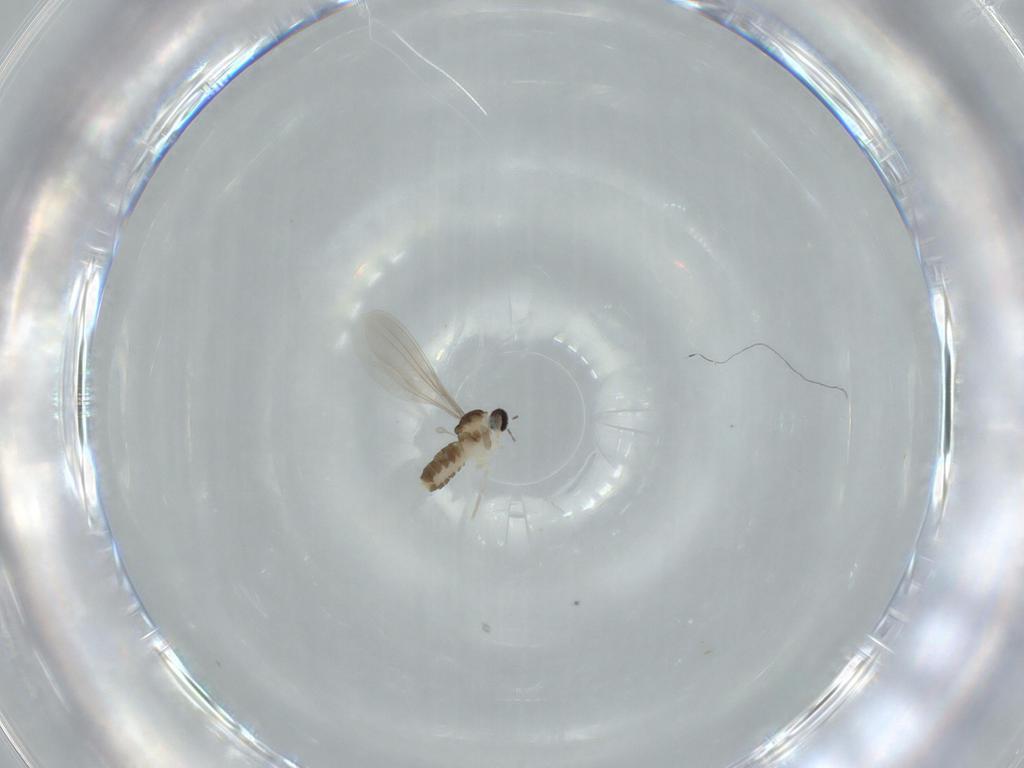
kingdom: Animalia
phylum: Arthropoda
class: Insecta
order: Diptera
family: Cecidomyiidae
